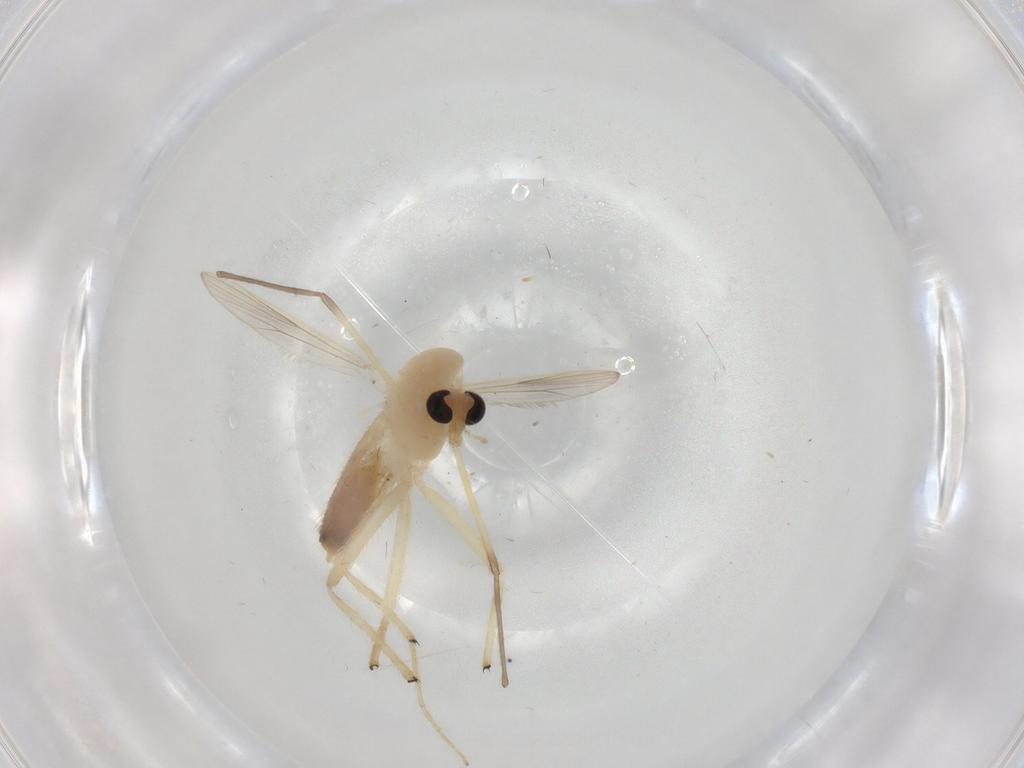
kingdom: Animalia
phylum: Arthropoda
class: Insecta
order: Diptera
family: Chironomidae
